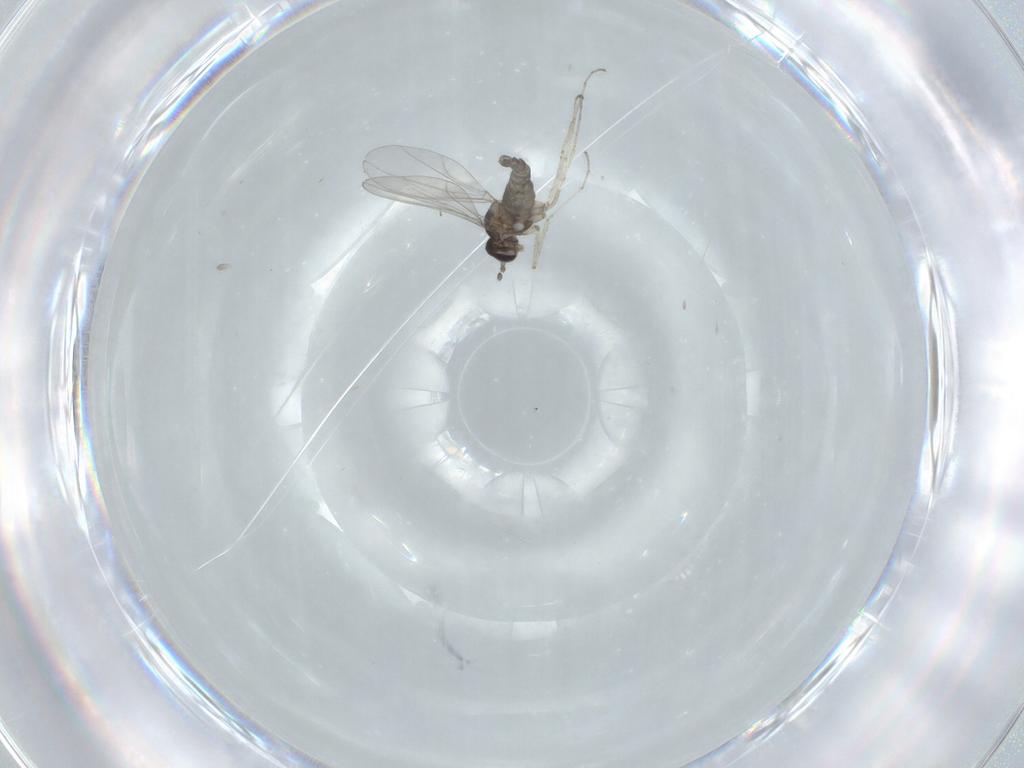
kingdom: Animalia
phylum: Arthropoda
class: Insecta
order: Diptera
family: Cecidomyiidae
